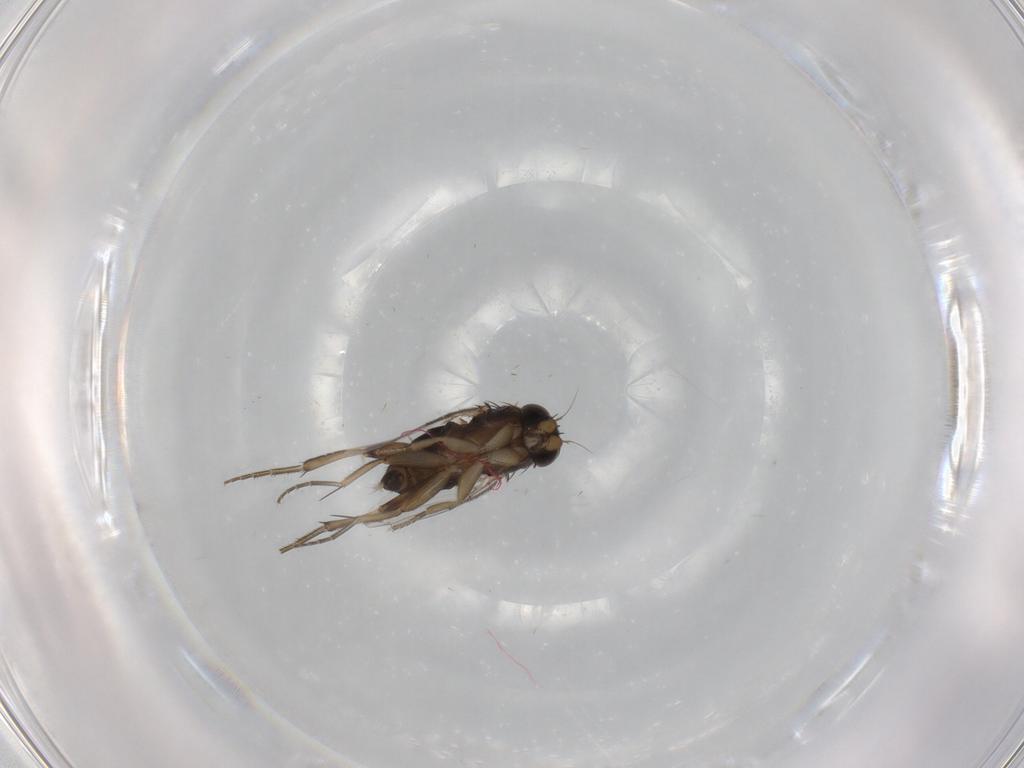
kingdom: Animalia
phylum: Arthropoda
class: Insecta
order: Diptera
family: Phoridae
